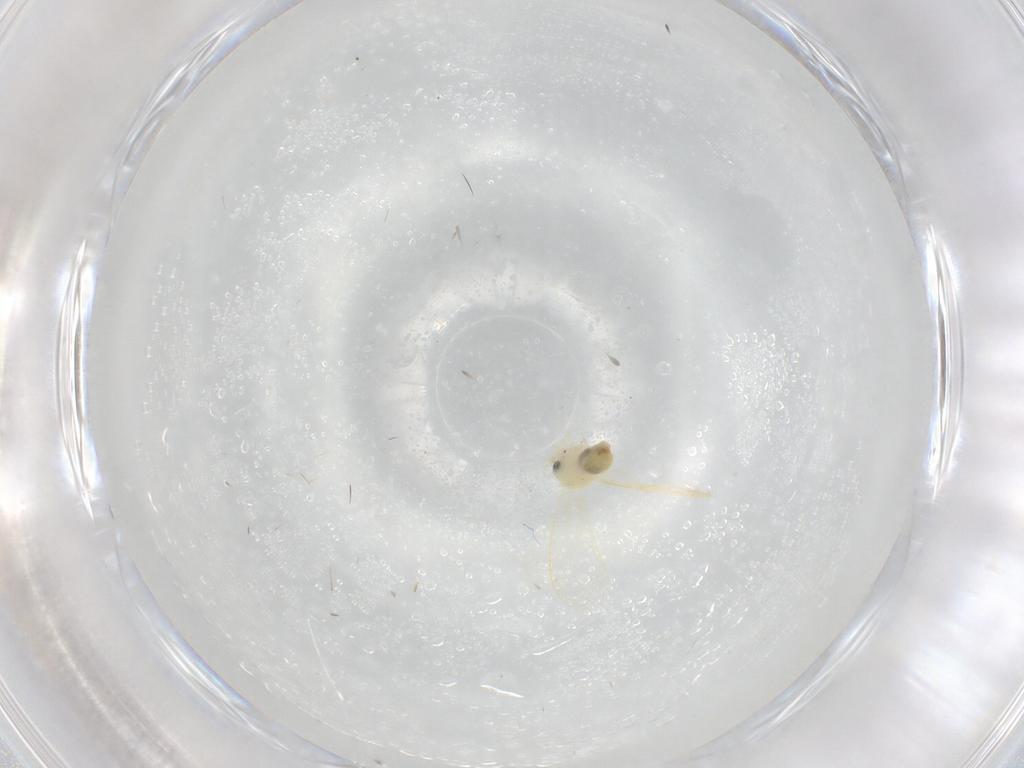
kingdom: Animalia
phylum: Arthropoda
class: Insecta
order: Hemiptera
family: Aleyrodidae
